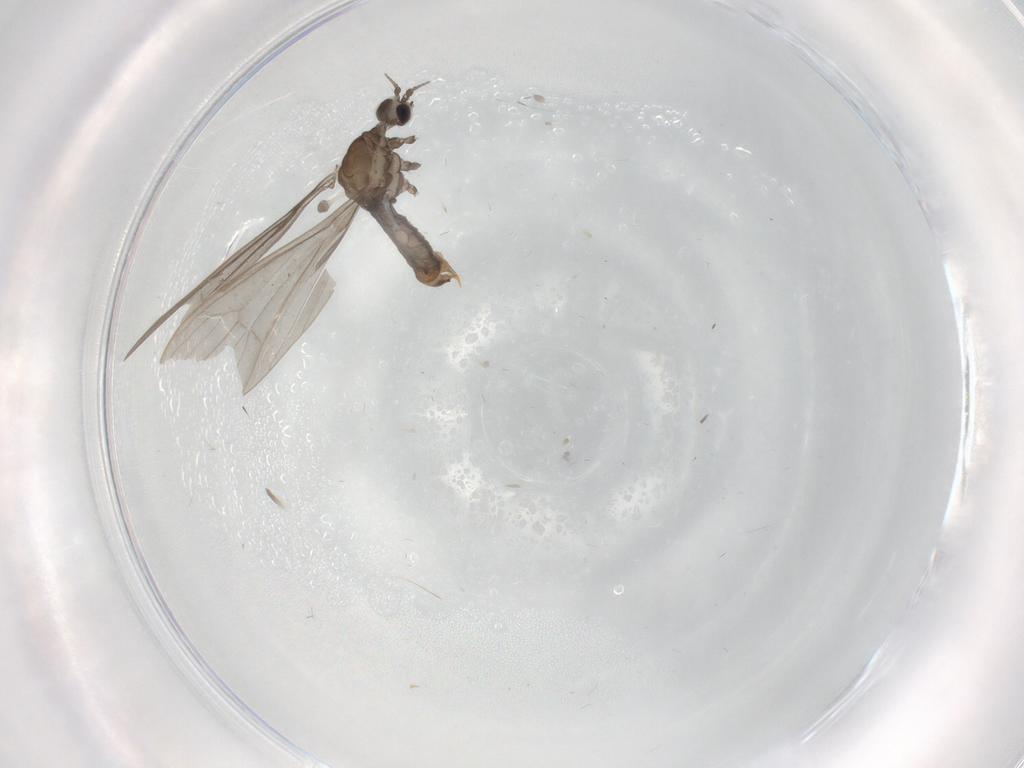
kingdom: Animalia
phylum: Arthropoda
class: Insecta
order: Diptera
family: Limoniidae
